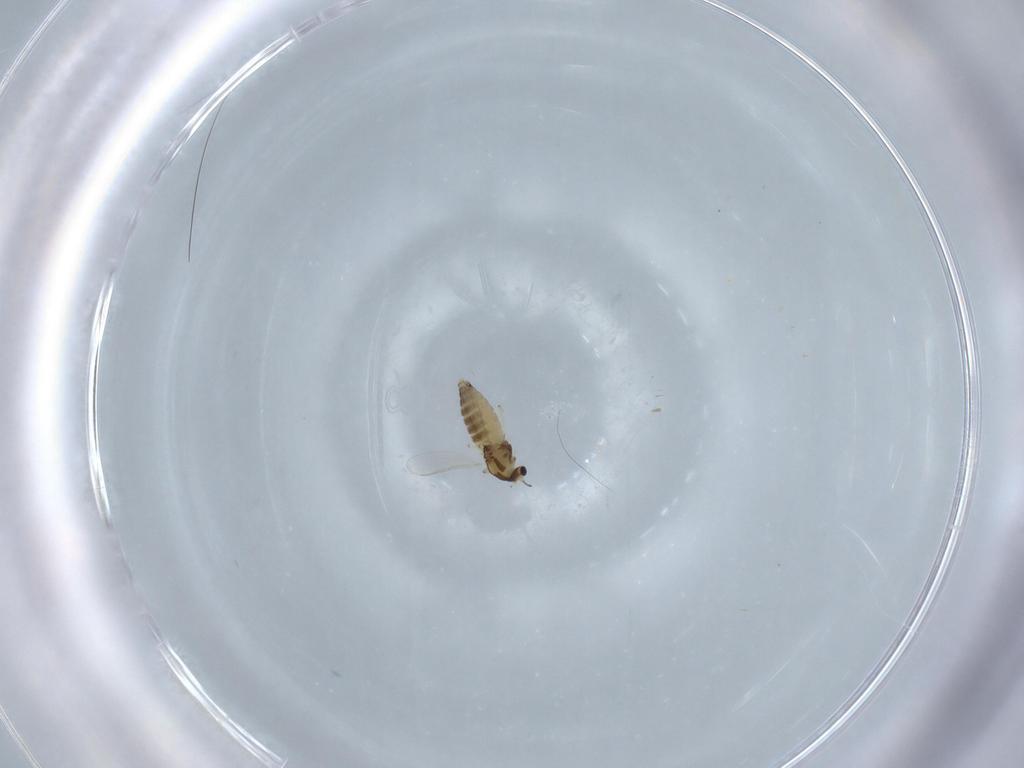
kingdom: Animalia
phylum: Arthropoda
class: Insecta
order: Diptera
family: Chironomidae
